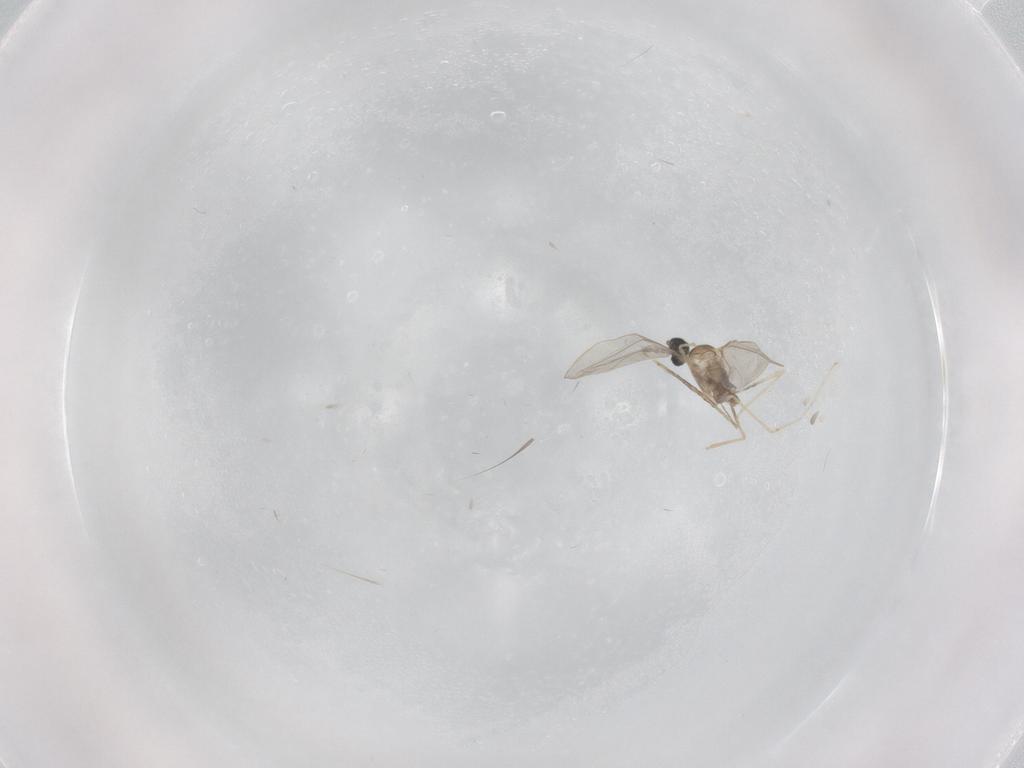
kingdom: Animalia
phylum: Arthropoda
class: Insecta
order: Diptera
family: Cecidomyiidae
